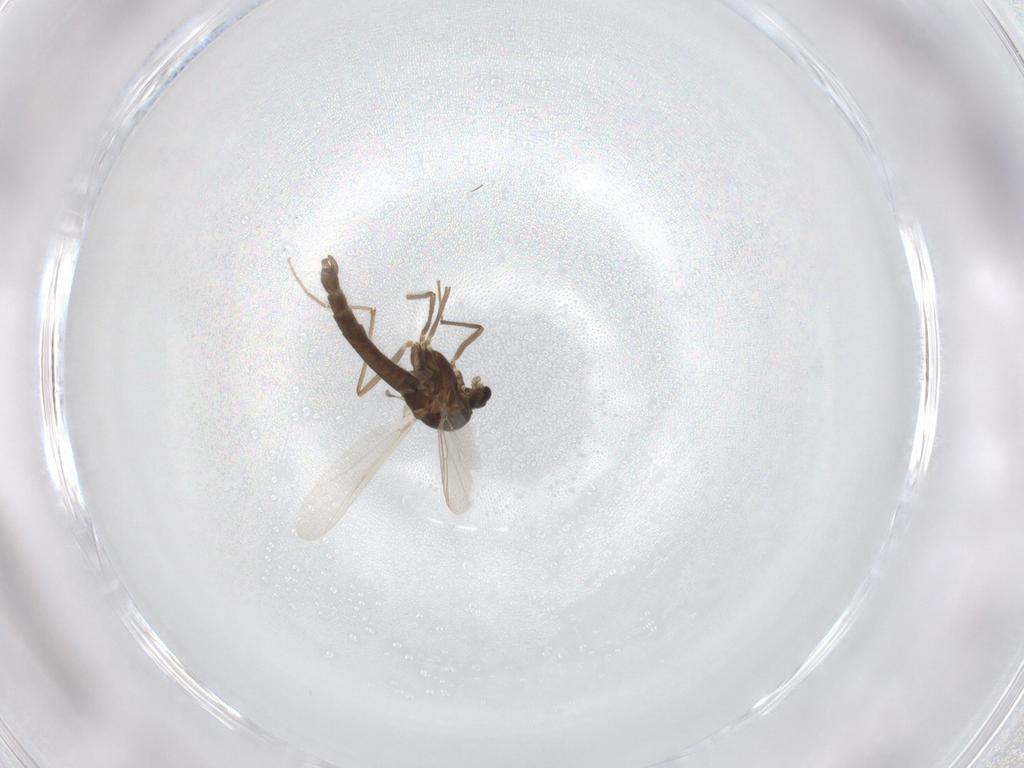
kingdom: Animalia
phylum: Arthropoda
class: Insecta
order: Diptera
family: Chironomidae
